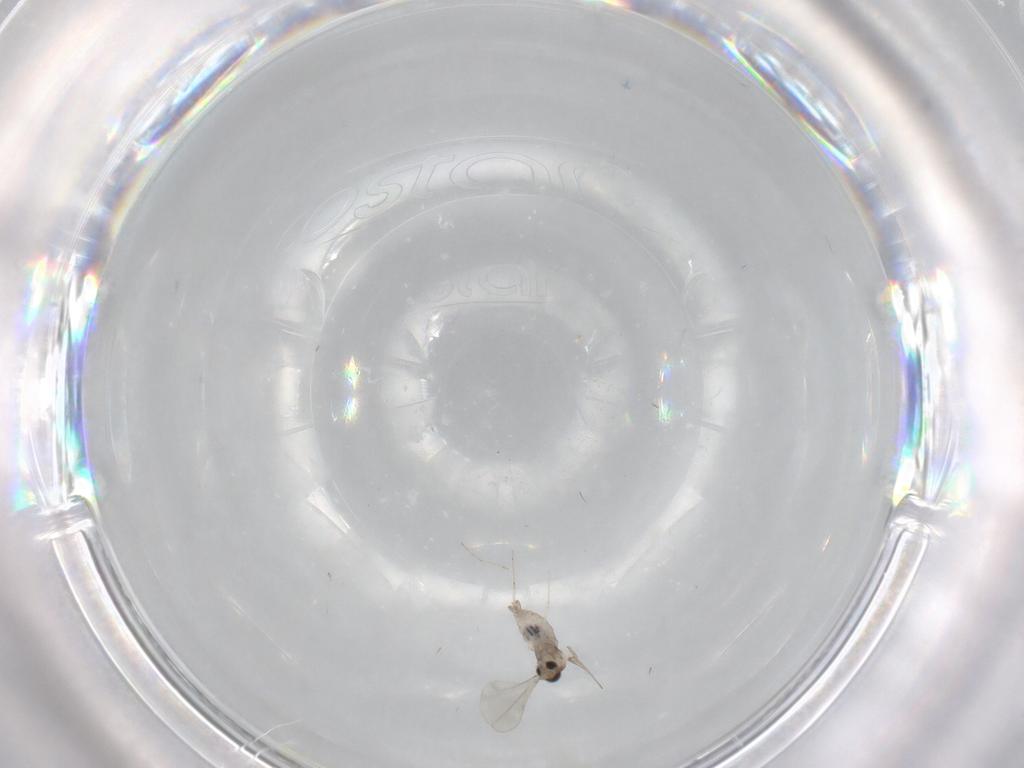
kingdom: Animalia
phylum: Arthropoda
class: Insecta
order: Diptera
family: Cecidomyiidae
